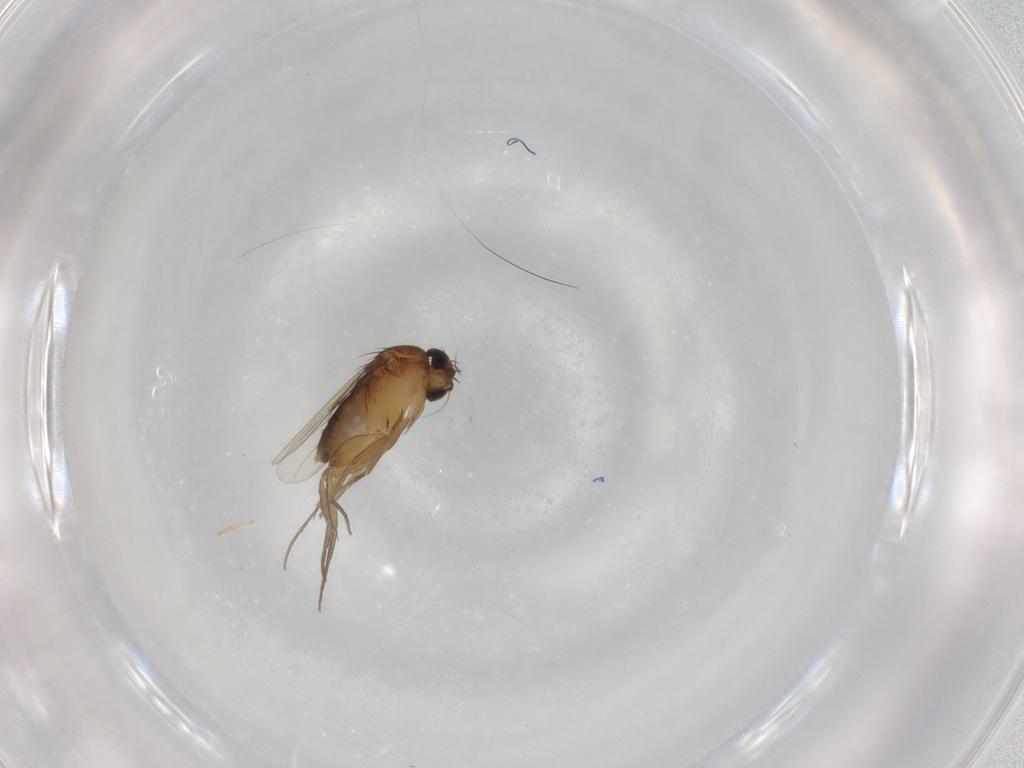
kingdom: Animalia
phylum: Arthropoda
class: Insecta
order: Diptera
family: Phoridae
